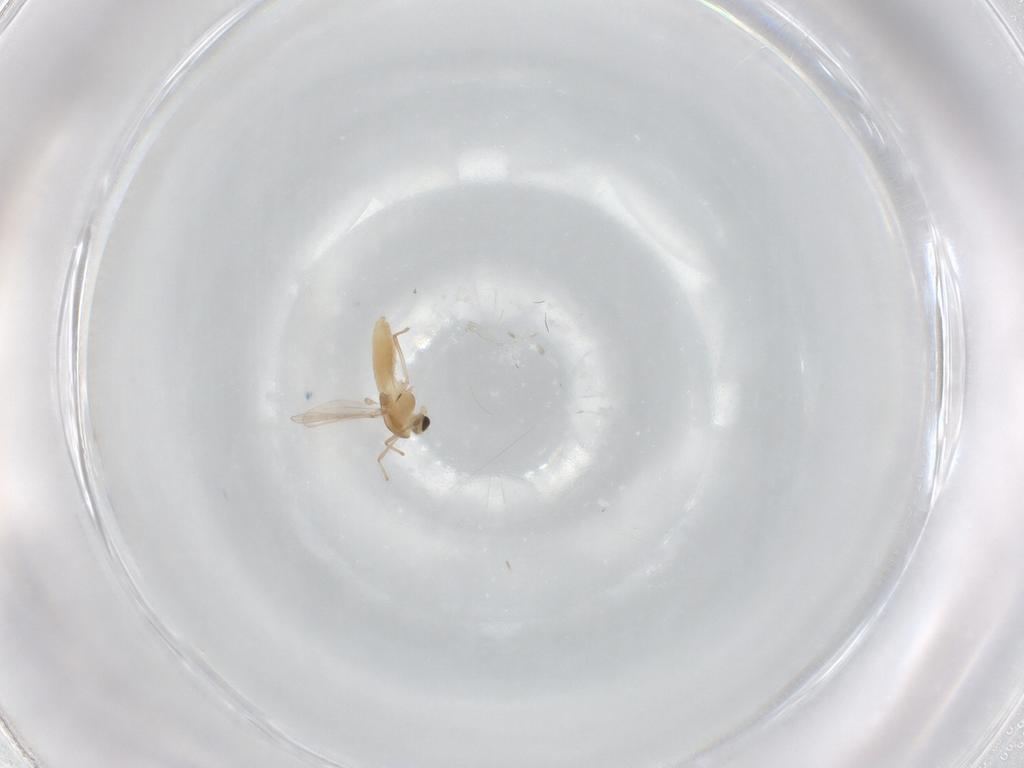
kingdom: Animalia
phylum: Arthropoda
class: Insecta
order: Diptera
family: Chironomidae
